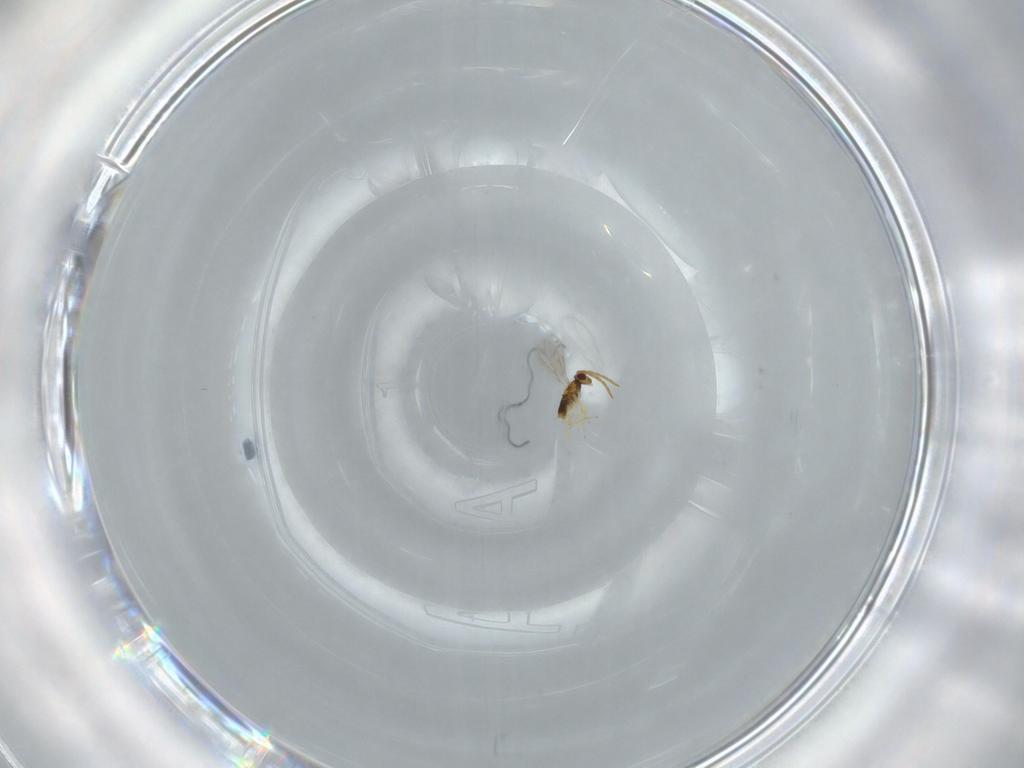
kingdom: Animalia
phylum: Arthropoda
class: Insecta
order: Hymenoptera
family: Aphelinidae
